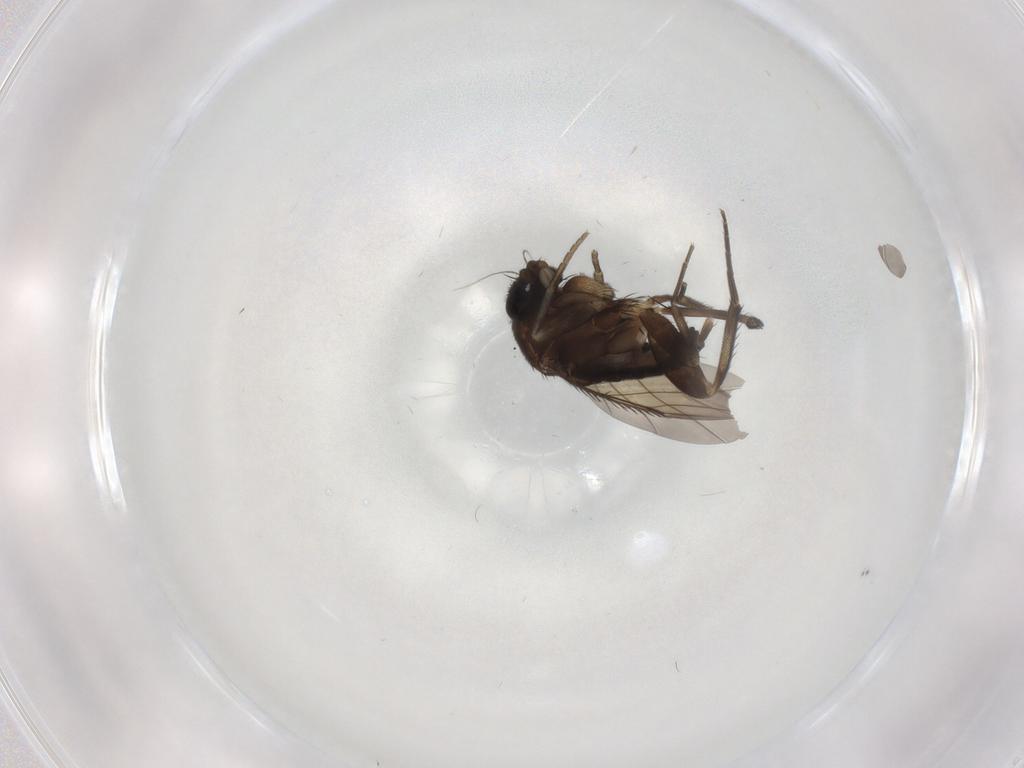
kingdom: Animalia
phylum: Arthropoda
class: Insecta
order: Diptera
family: Phoridae
